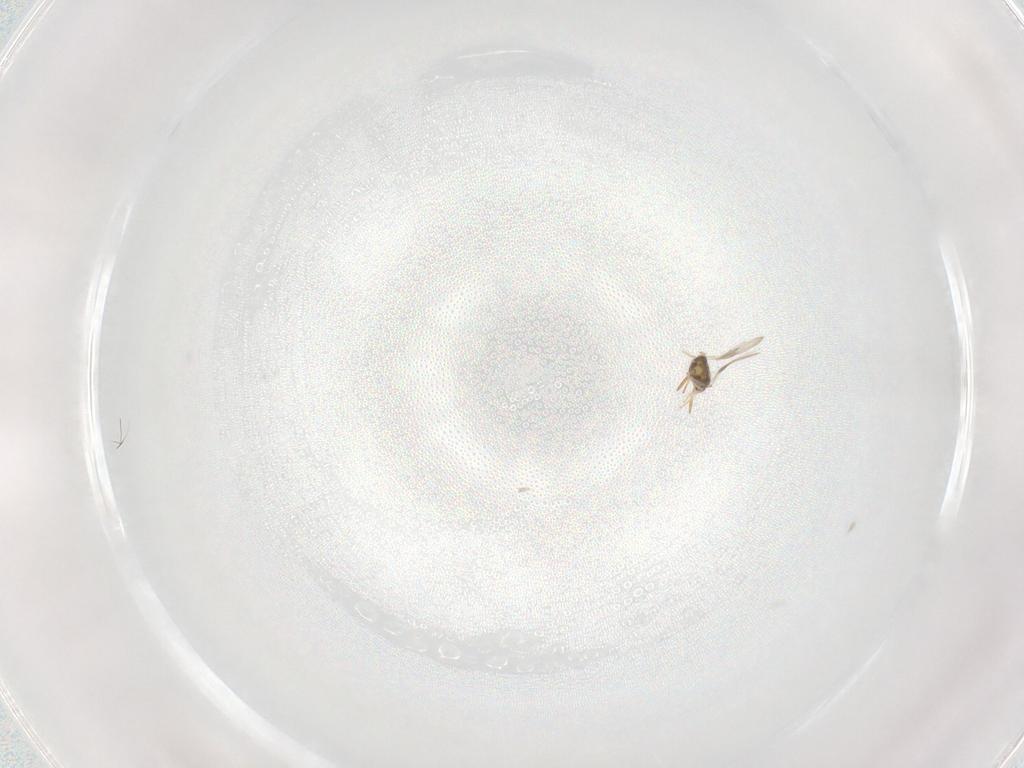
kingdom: Animalia
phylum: Arthropoda
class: Insecta
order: Hymenoptera
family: Aphelinidae
